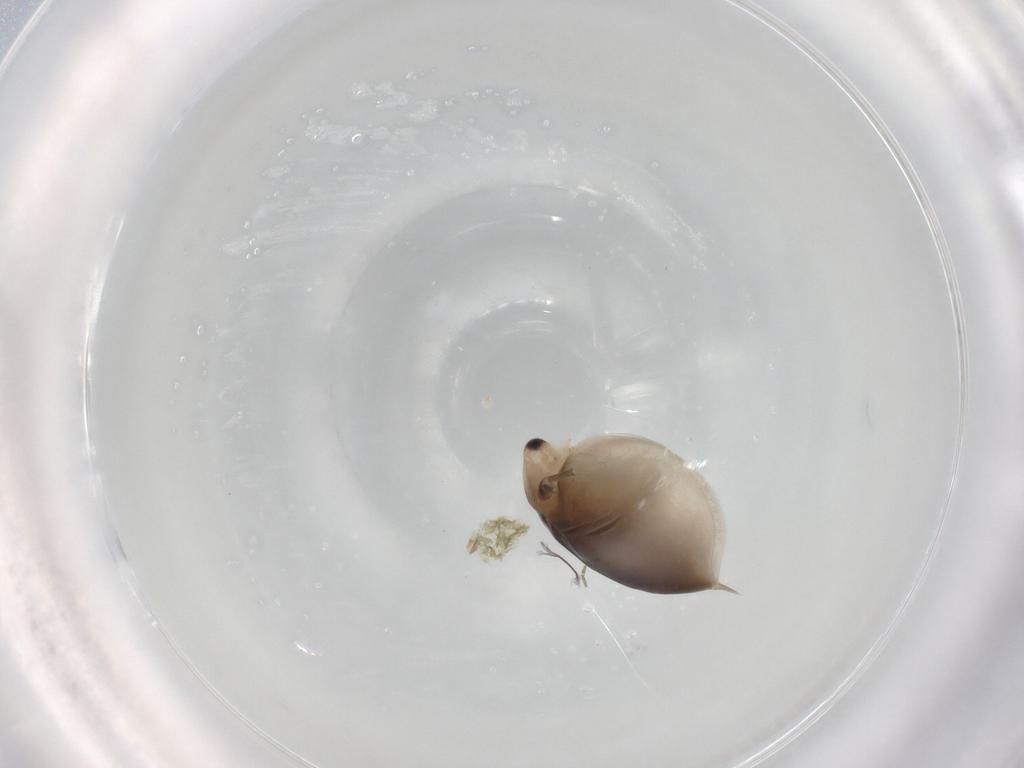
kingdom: Animalia
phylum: Arthropoda
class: Branchiopoda
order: Diplostraca
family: Daphniidae
